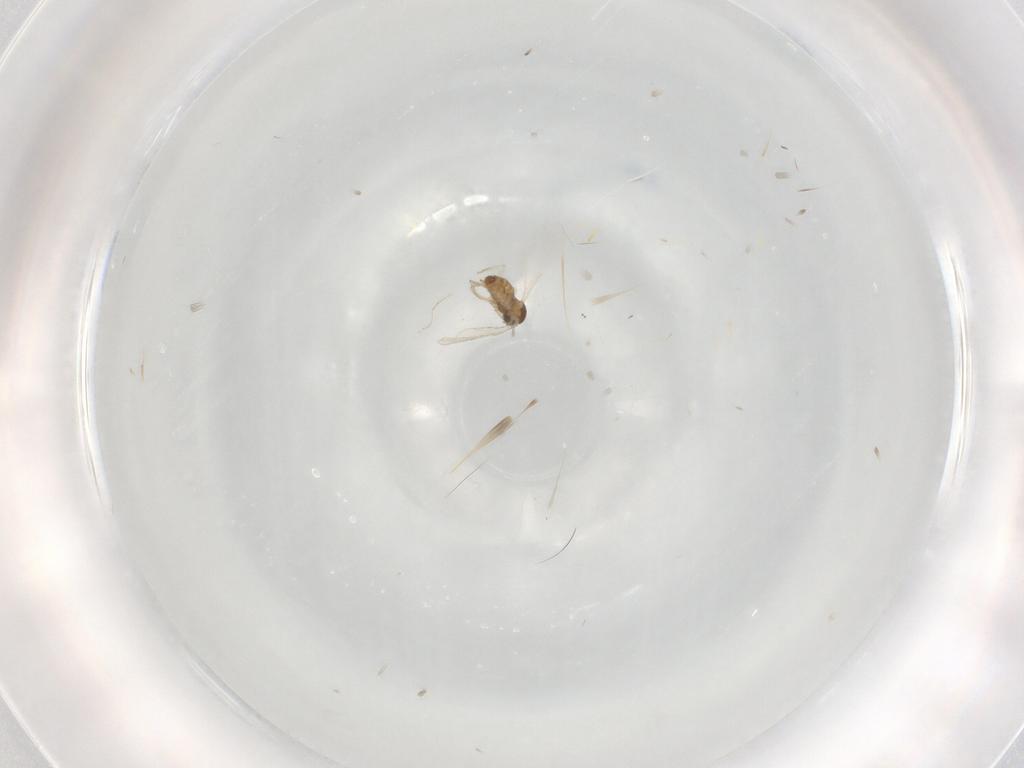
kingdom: Animalia
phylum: Arthropoda
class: Insecta
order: Diptera
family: Cecidomyiidae
